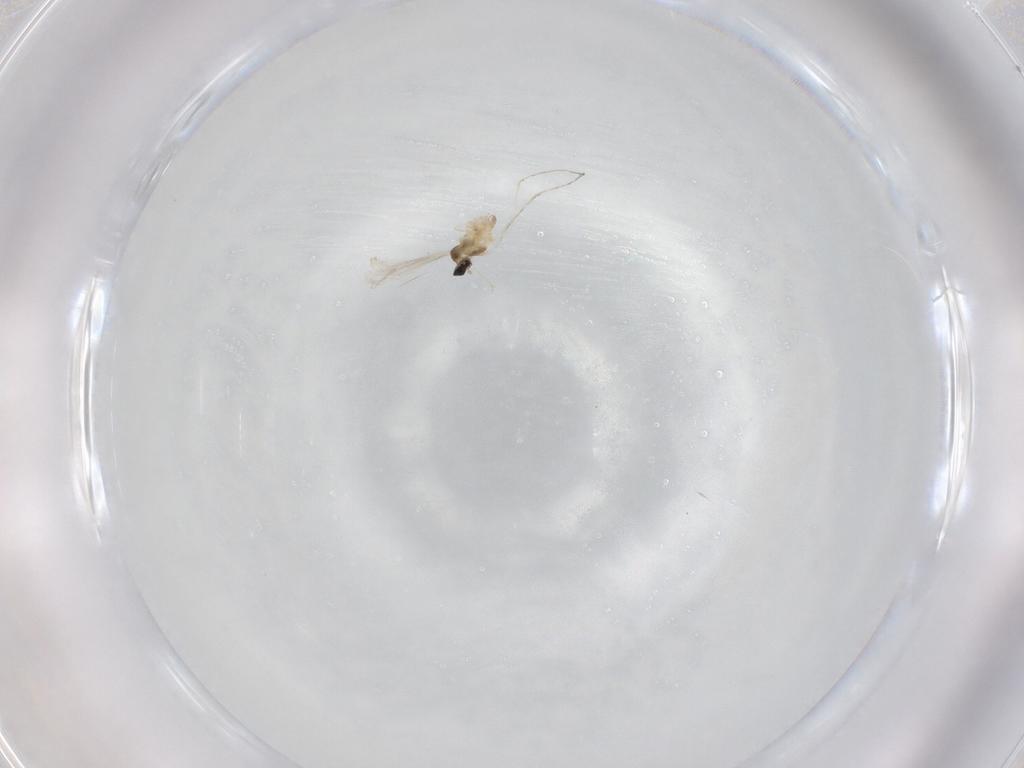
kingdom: Animalia
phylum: Arthropoda
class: Insecta
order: Diptera
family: Cecidomyiidae
